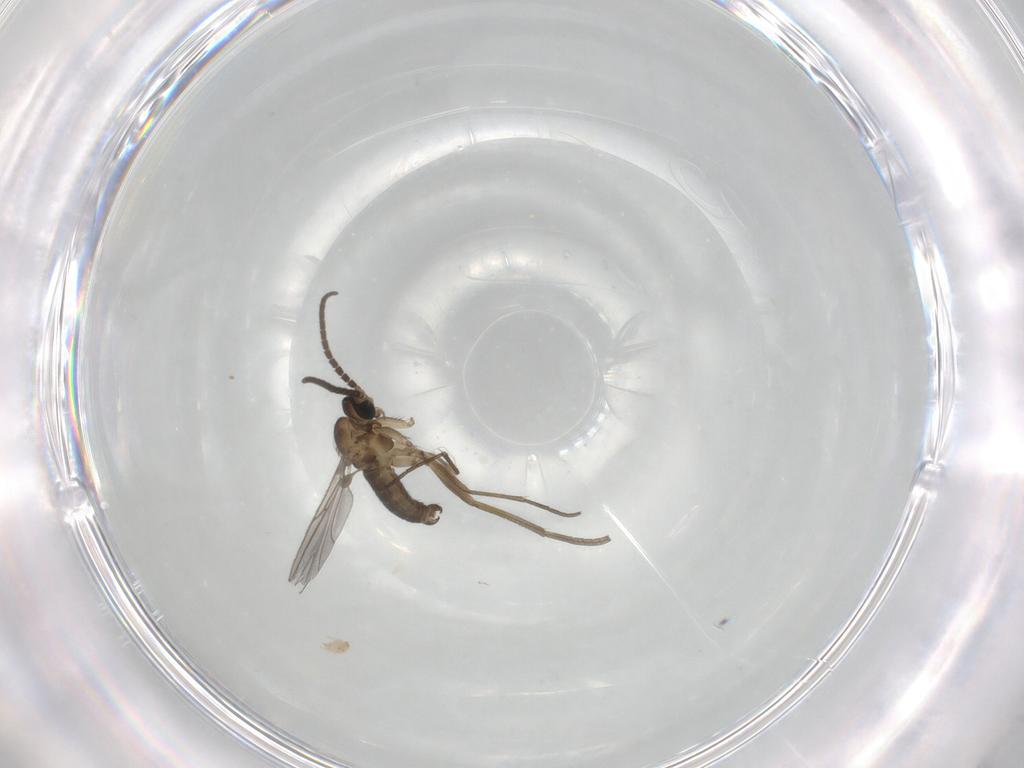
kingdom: Animalia
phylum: Arthropoda
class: Insecta
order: Diptera
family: Sciaridae
